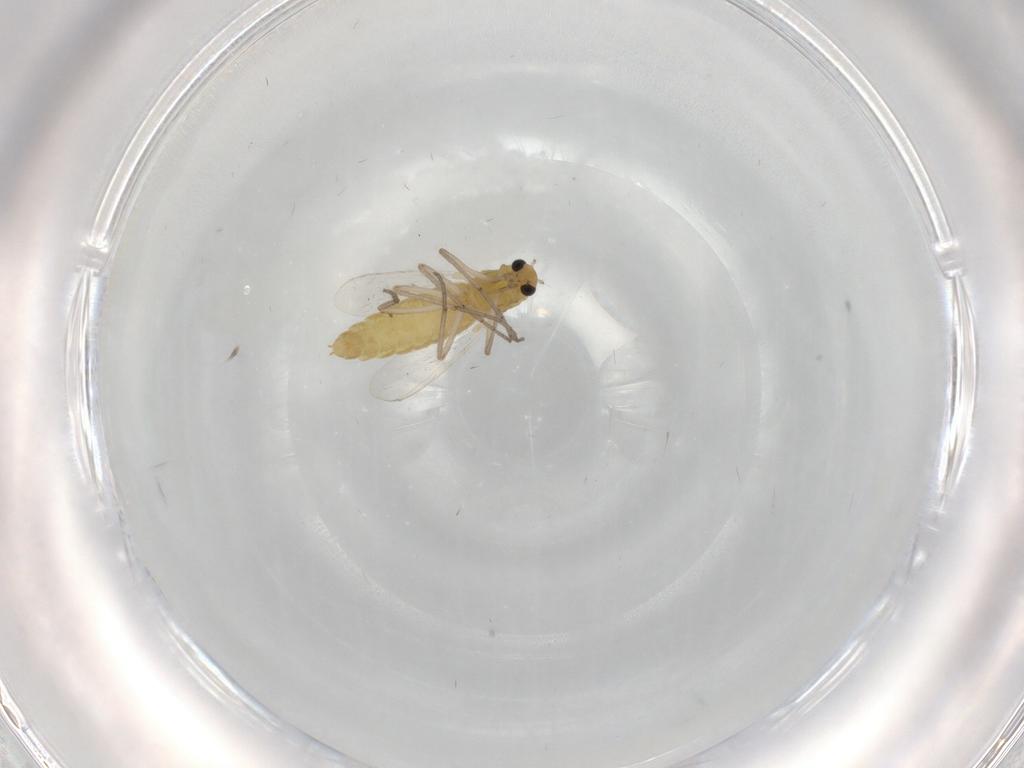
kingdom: Animalia
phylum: Arthropoda
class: Insecta
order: Diptera
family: Chironomidae
